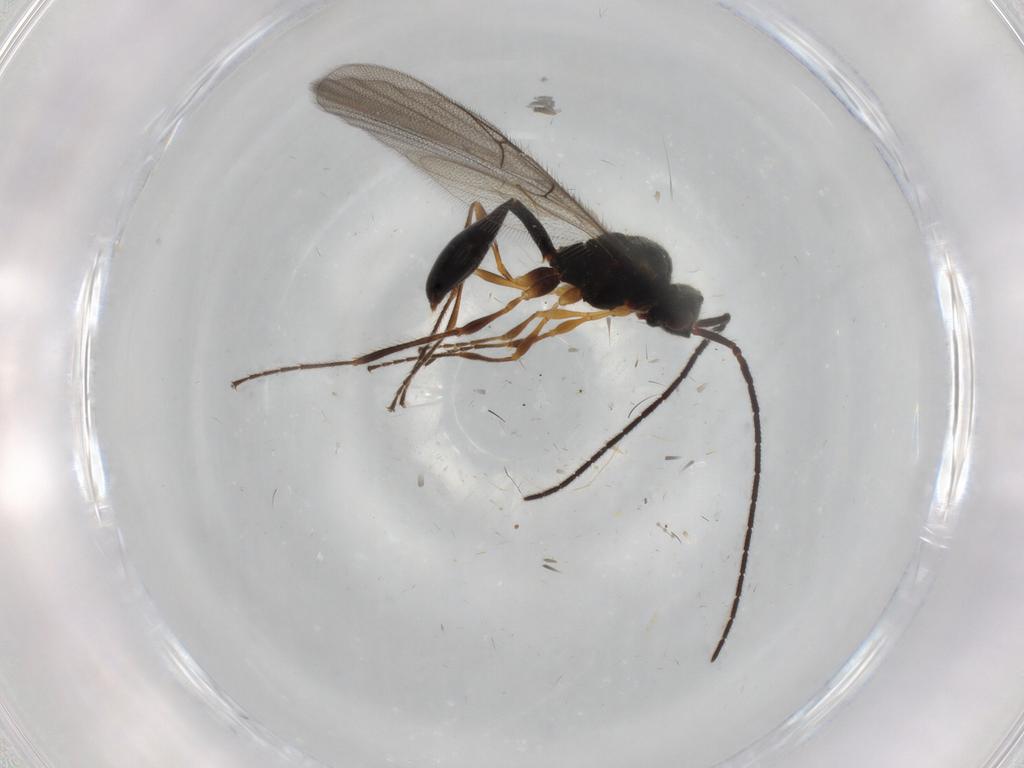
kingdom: Animalia
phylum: Arthropoda
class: Insecta
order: Hymenoptera
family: Diapriidae
